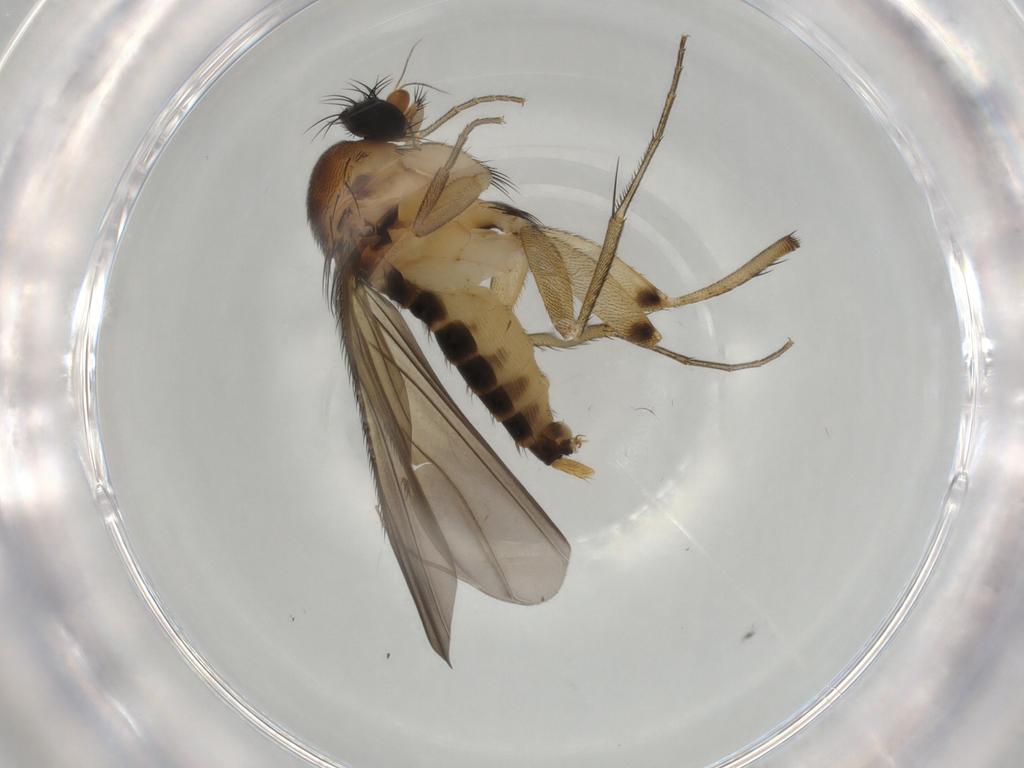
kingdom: Animalia
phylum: Arthropoda
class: Insecta
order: Diptera
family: Phoridae
